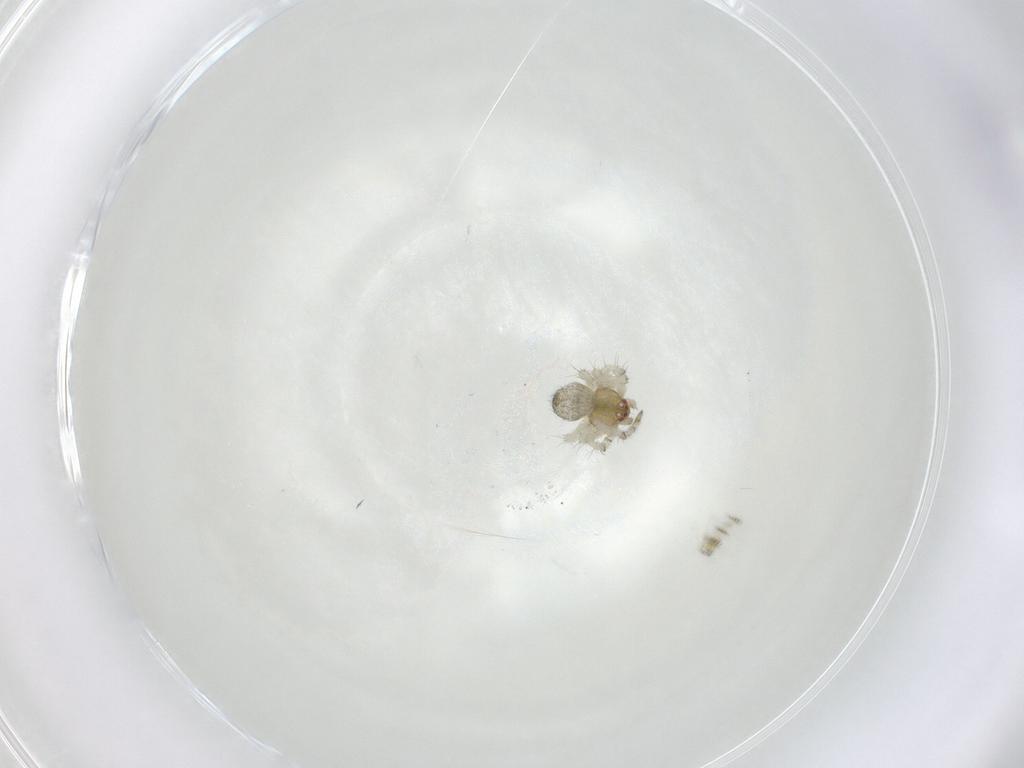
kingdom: Animalia
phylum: Arthropoda
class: Arachnida
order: Araneae
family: Theridiidae
